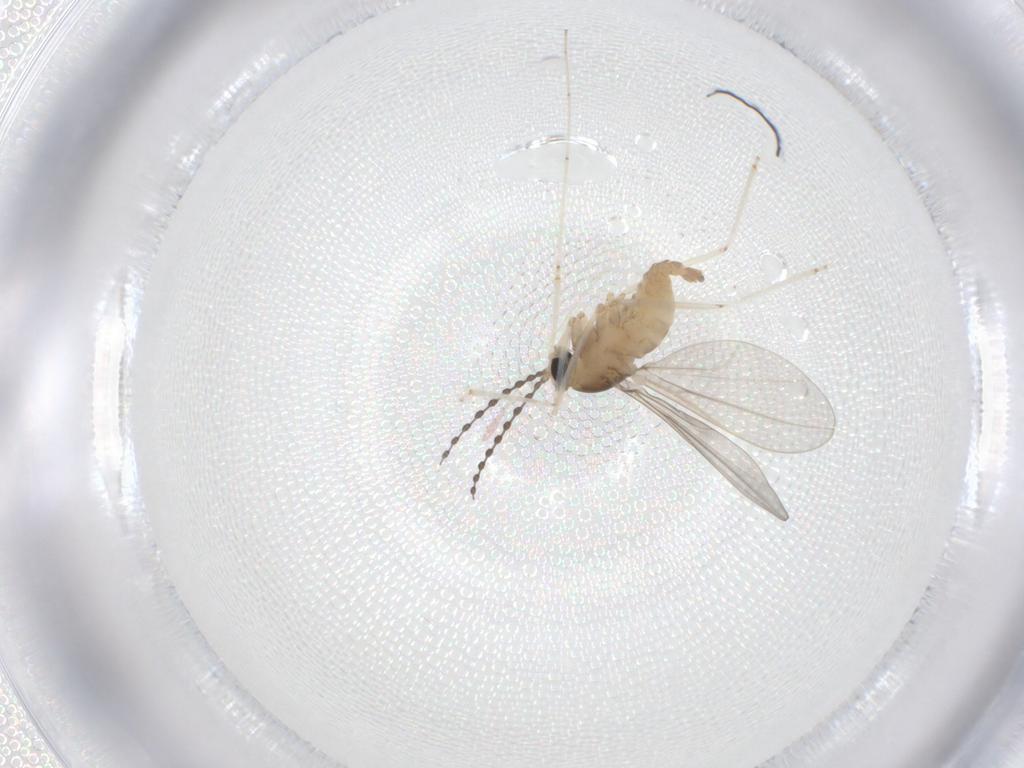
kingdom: Animalia
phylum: Arthropoda
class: Insecta
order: Diptera
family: Cecidomyiidae
